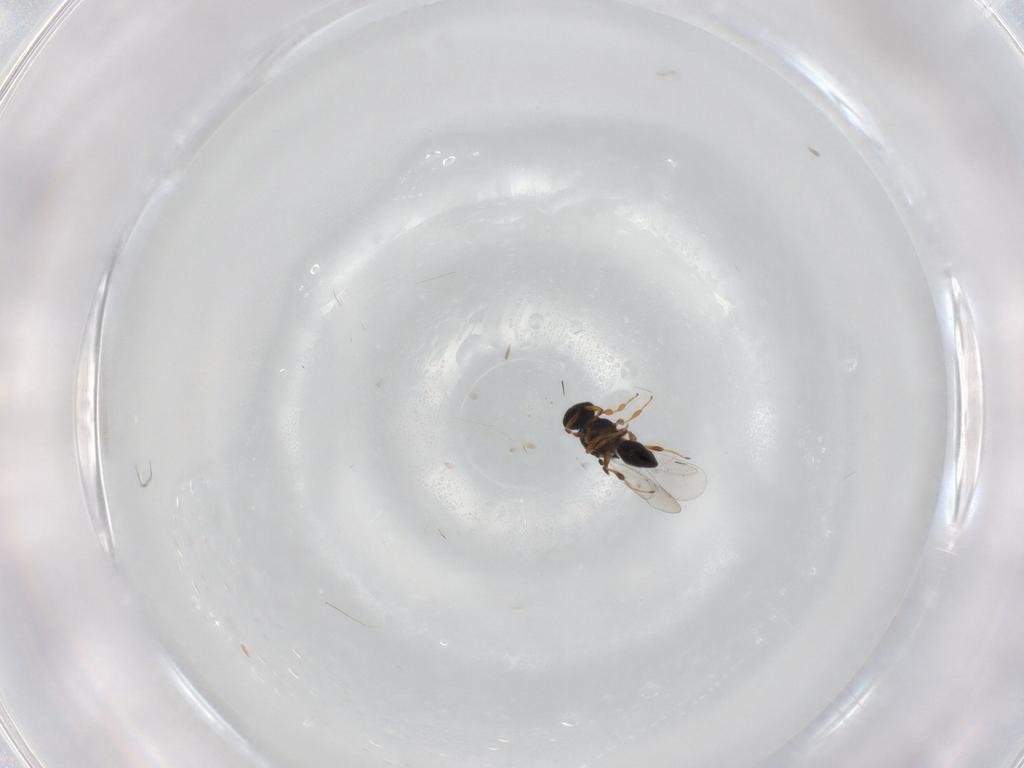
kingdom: Animalia
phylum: Arthropoda
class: Insecta
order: Hymenoptera
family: Platygastridae
